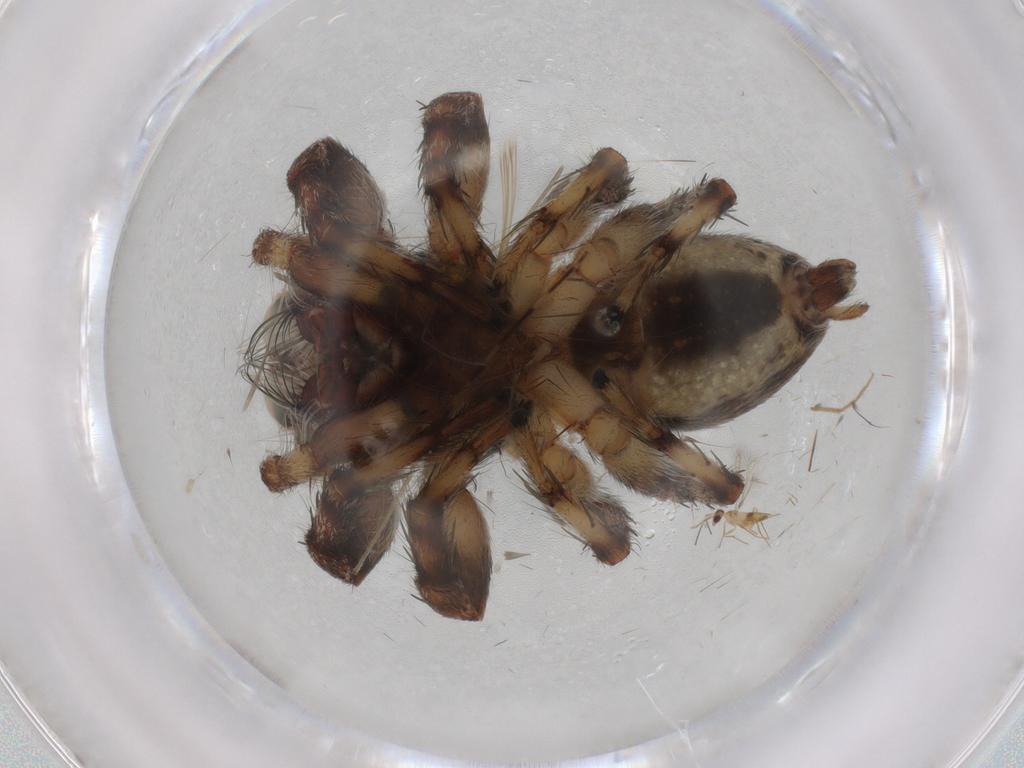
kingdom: Animalia
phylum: Arthropoda
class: Arachnida
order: Araneae
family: Salticidae
